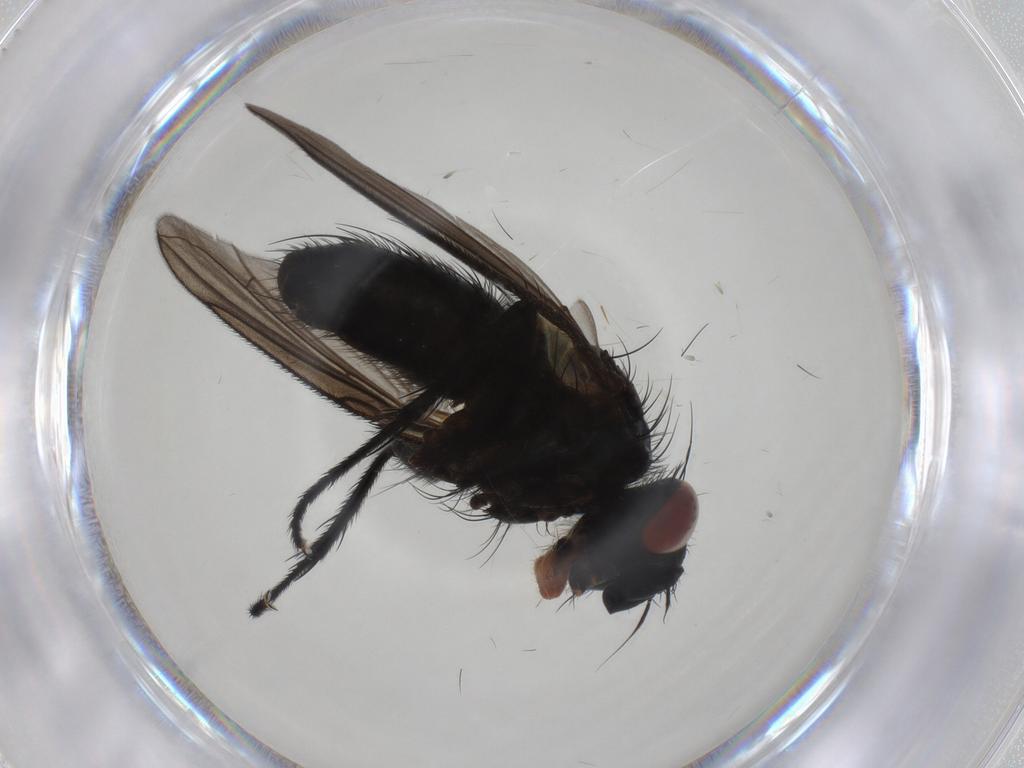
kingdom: Animalia
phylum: Arthropoda
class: Insecta
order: Diptera
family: Tachinidae
